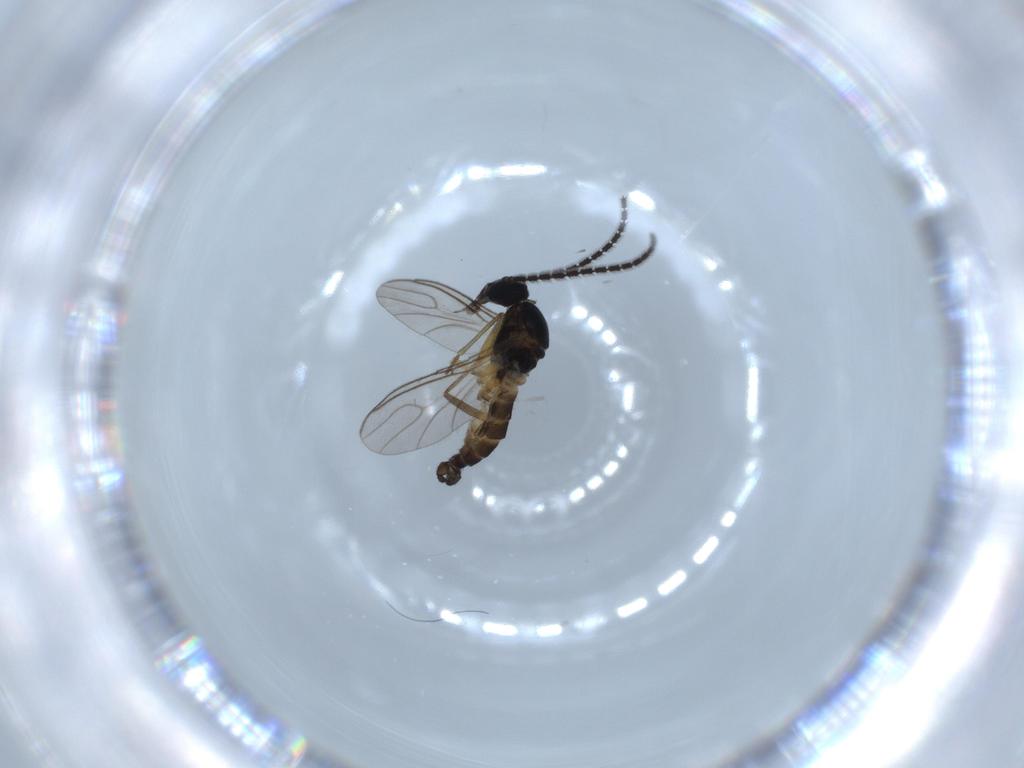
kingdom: Animalia
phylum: Arthropoda
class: Insecta
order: Diptera
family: Sciaridae
